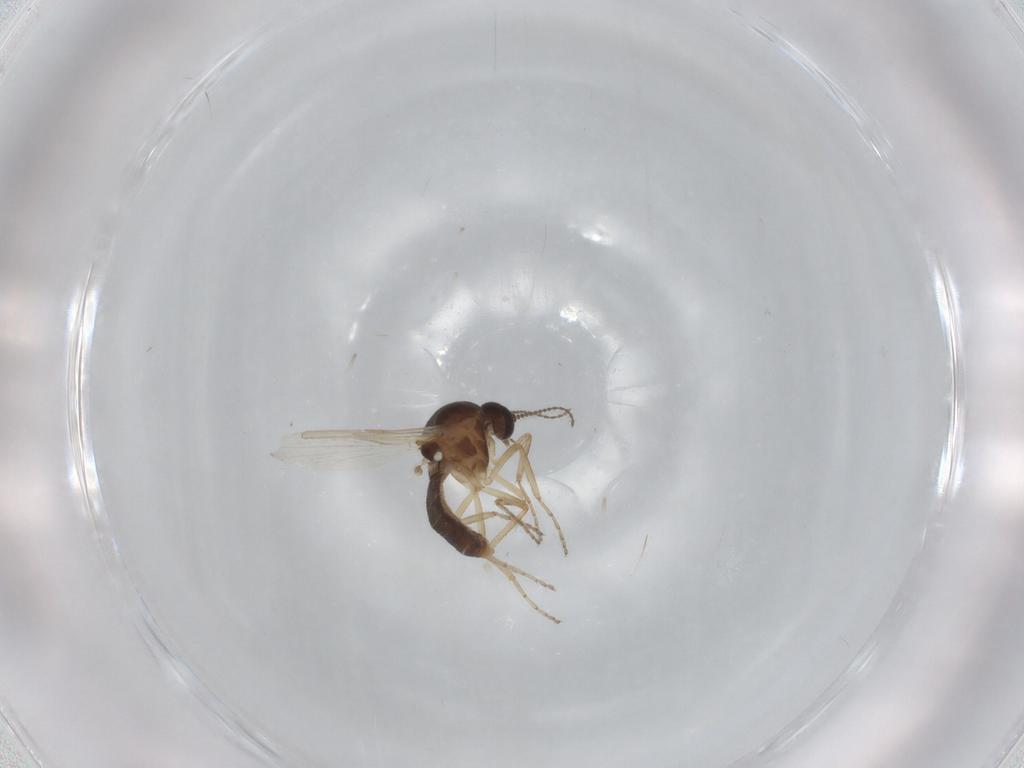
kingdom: Animalia
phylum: Arthropoda
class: Insecta
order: Diptera
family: Ceratopogonidae
